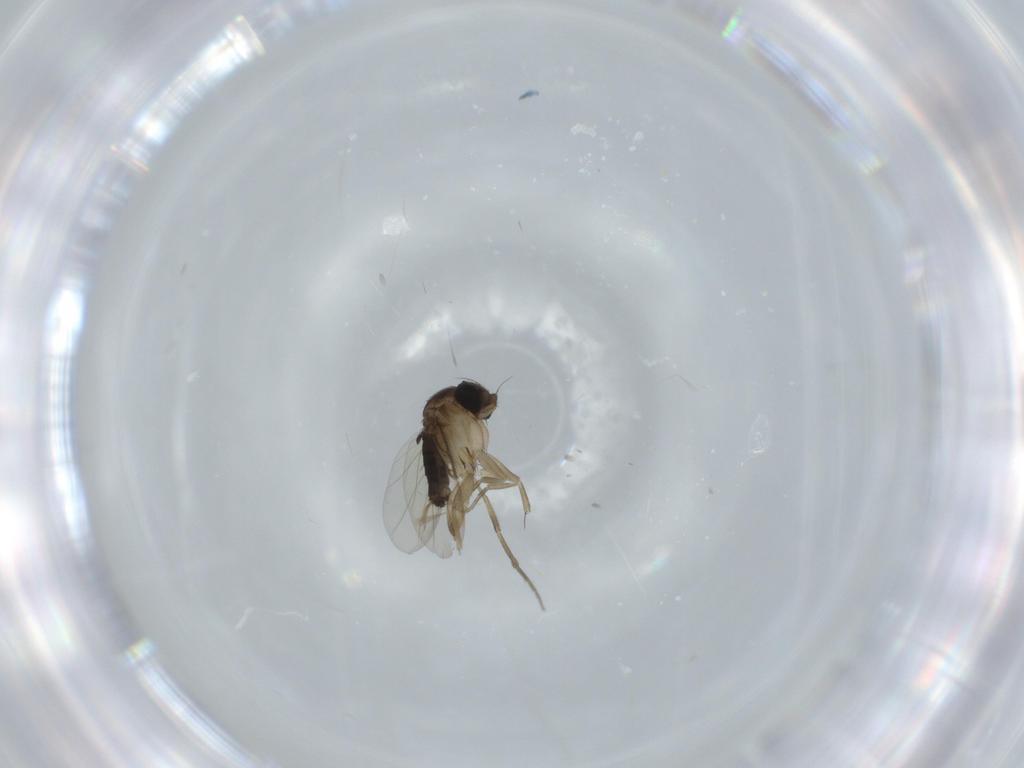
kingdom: Animalia
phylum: Arthropoda
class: Insecta
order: Diptera
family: Phoridae
